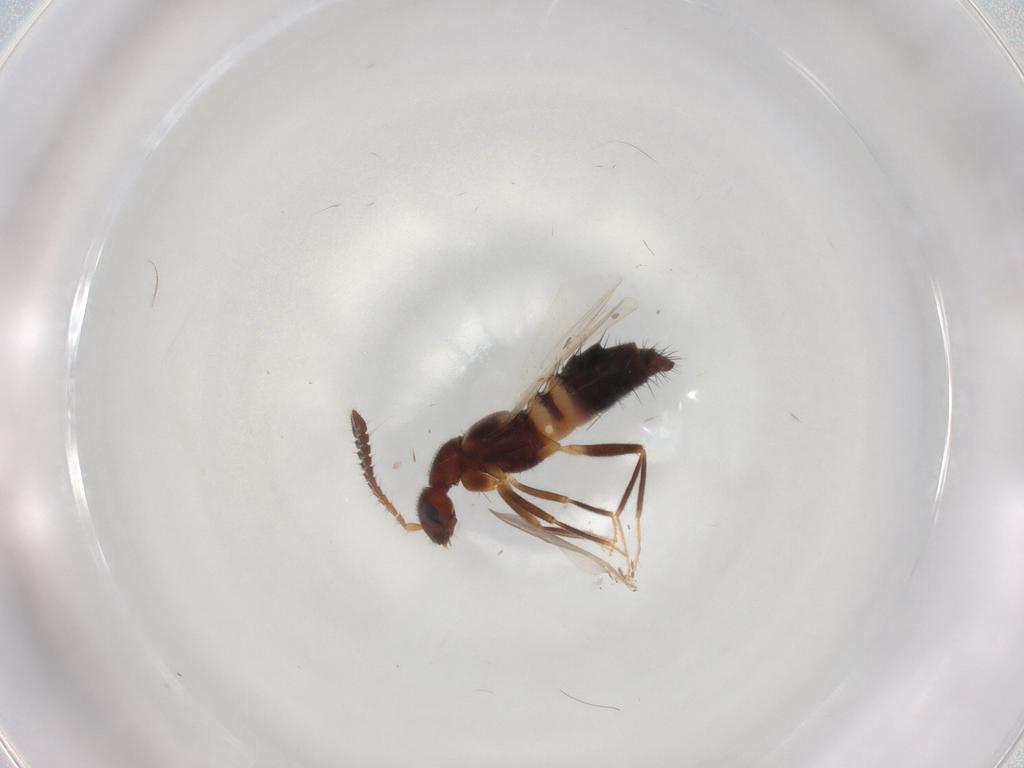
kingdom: Animalia
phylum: Arthropoda
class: Insecta
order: Coleoptera
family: Staphylinidae
